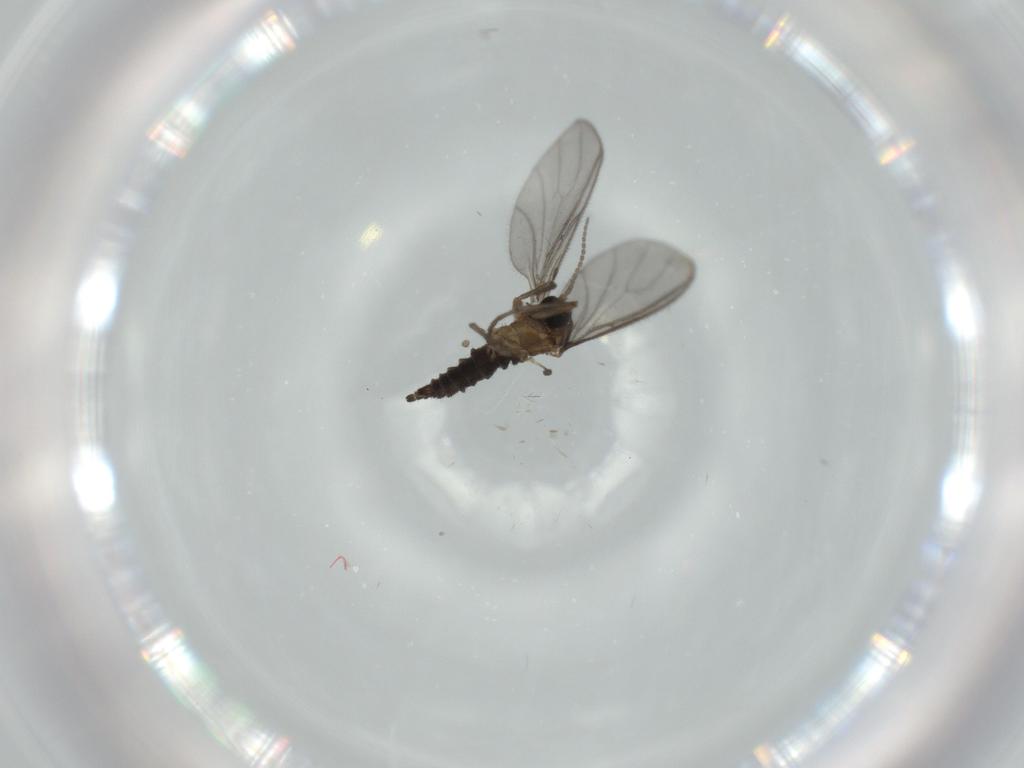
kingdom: Animalia
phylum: Arthropoda
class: Insecta
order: Diptera
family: Sciaridae
